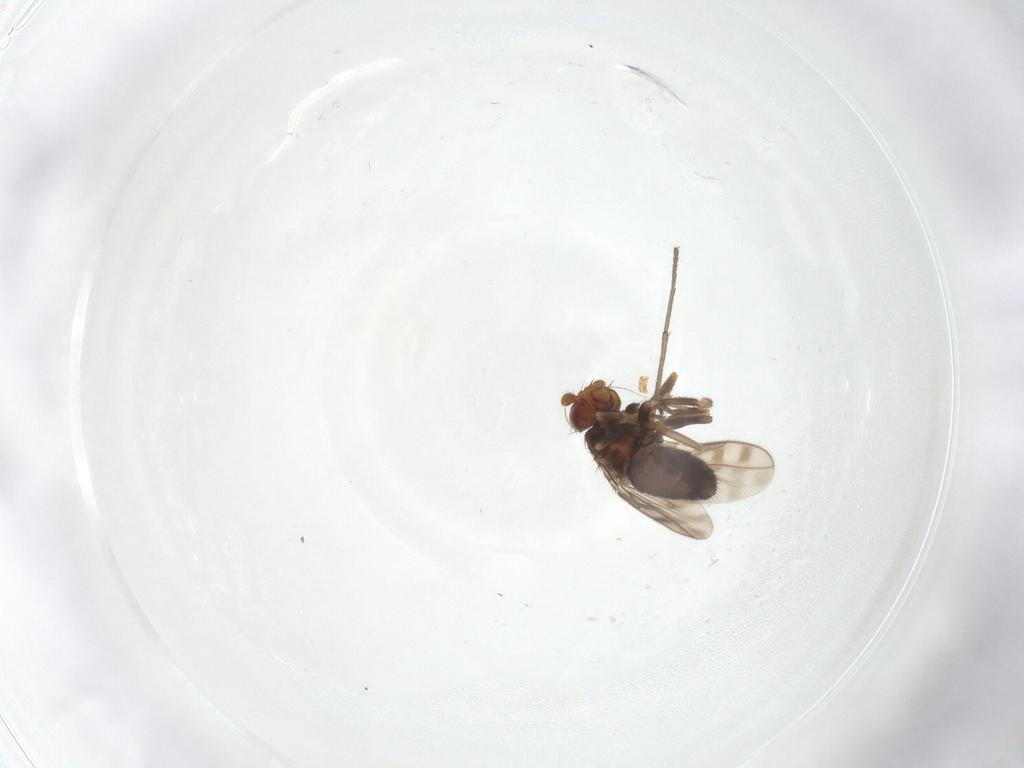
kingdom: Animalia
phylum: Arthropoda
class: Insecta
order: Diptera
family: Sphaeroceridae
